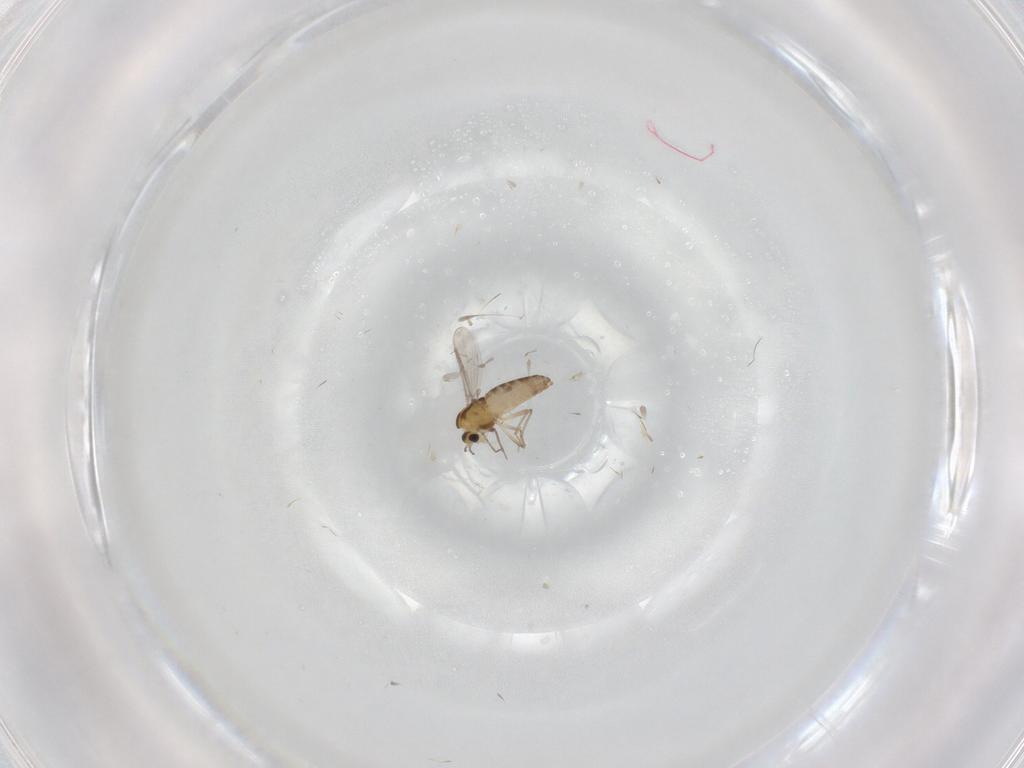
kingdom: Animalia
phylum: Arthropoda
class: Insecta
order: Diptera
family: Chironomidae
